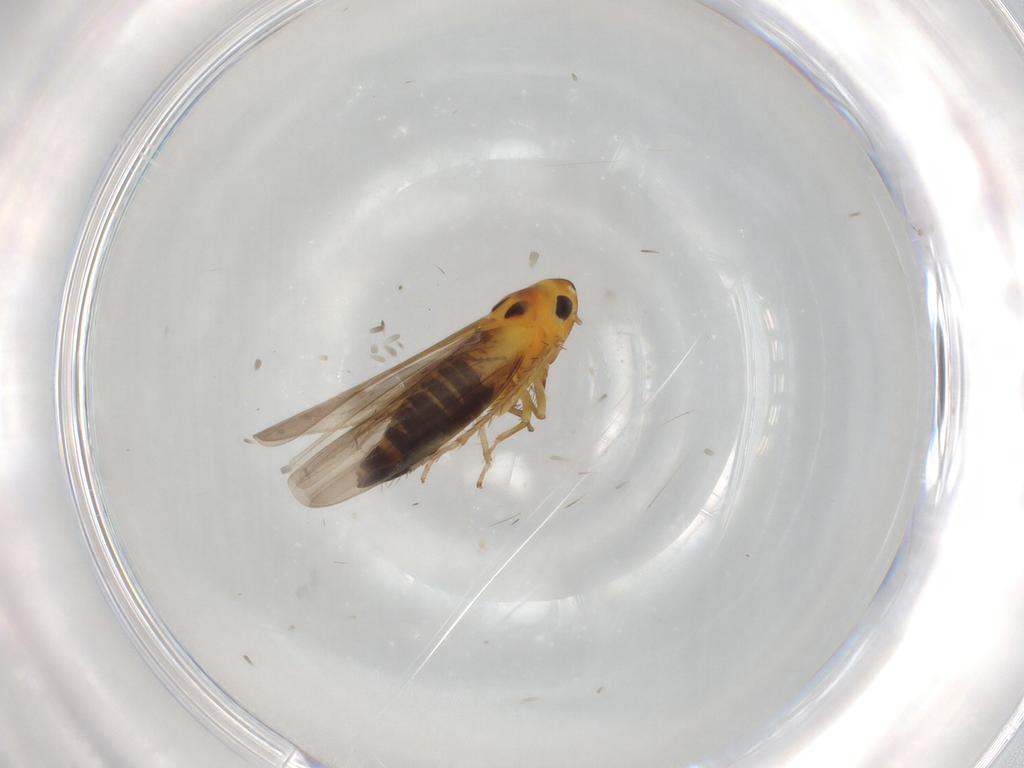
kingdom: Animalia
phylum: Arthropoda
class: Insecta
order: Hemiptera
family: Cicadellidae
